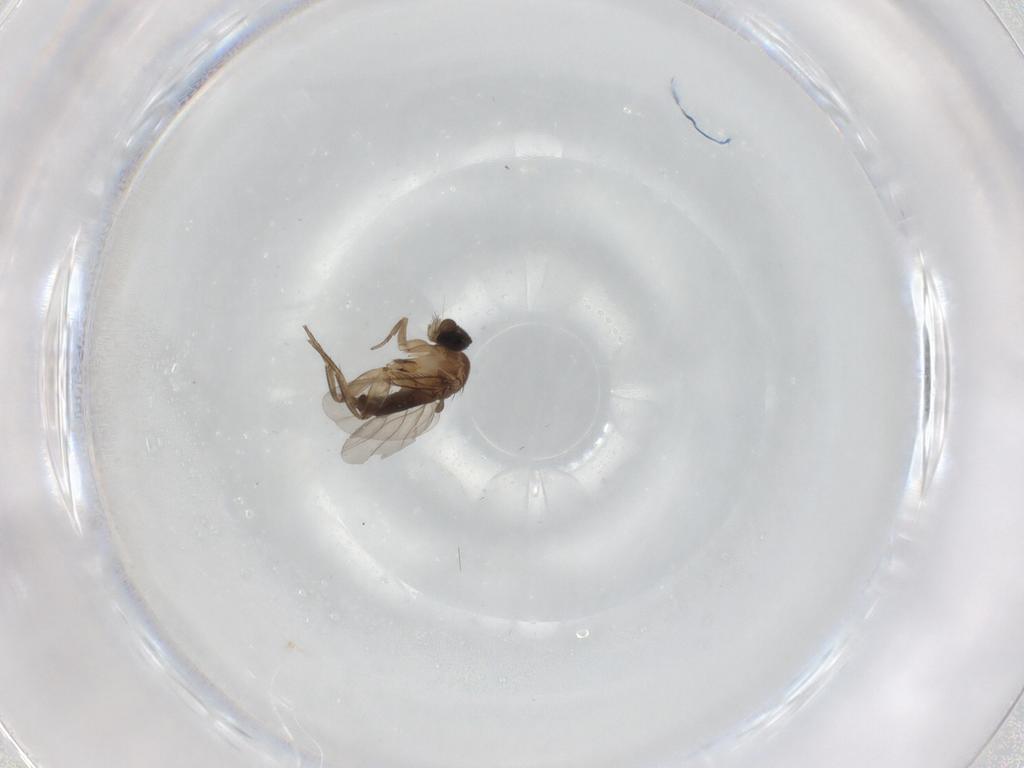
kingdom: Animalia
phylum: Arthropoda
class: Insecta
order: Diptera
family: Phoridae
